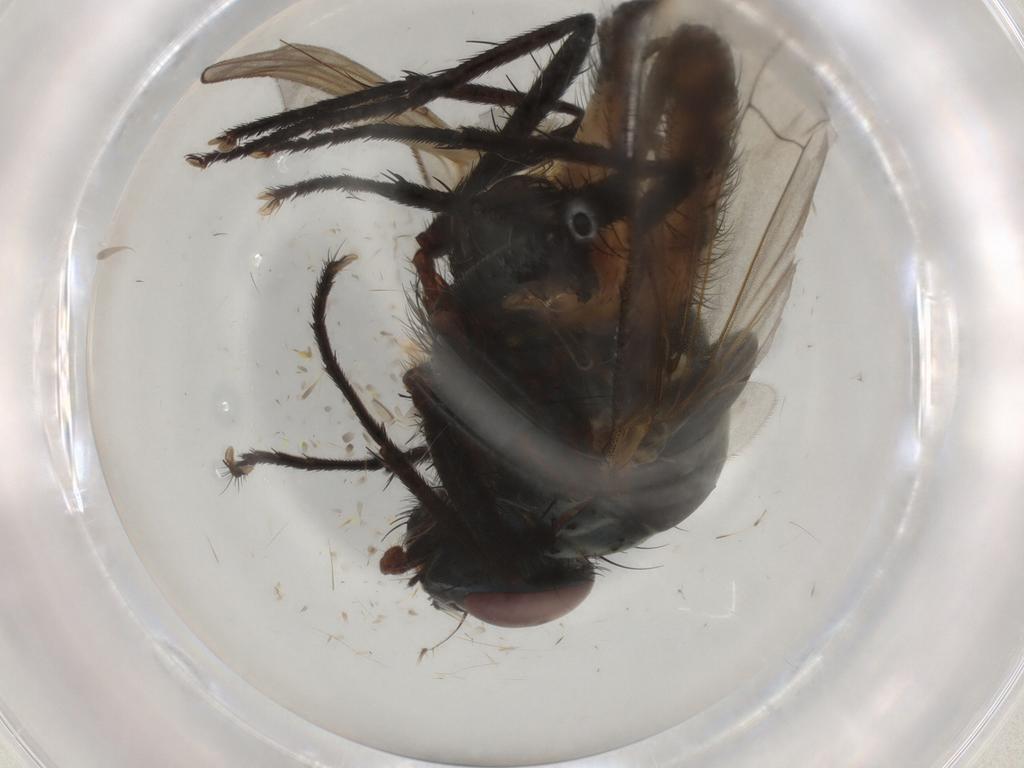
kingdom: Animalia
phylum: Arthropoda
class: Insecta
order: Diptera
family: Anthomyiidae
